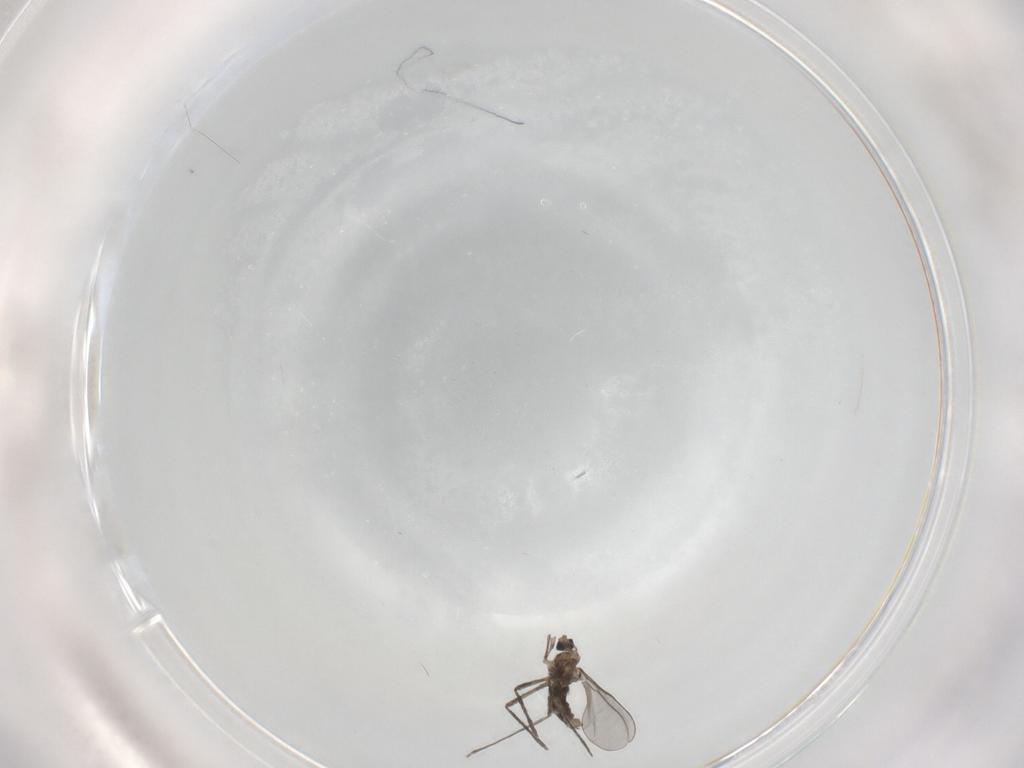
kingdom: Animalia
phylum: Arthropoda
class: Insecta
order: Diptera
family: Cecidomyiidae
